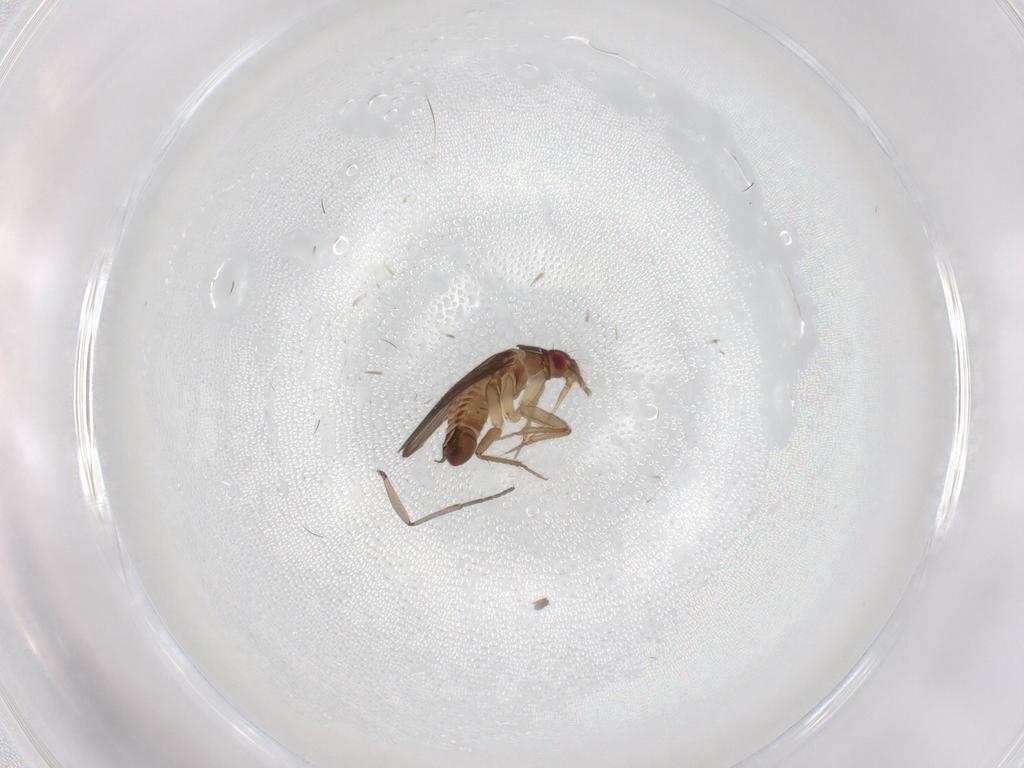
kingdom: Animalia
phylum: Arthropoda
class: Insecta
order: Hemiptera
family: Ceratocombidae
